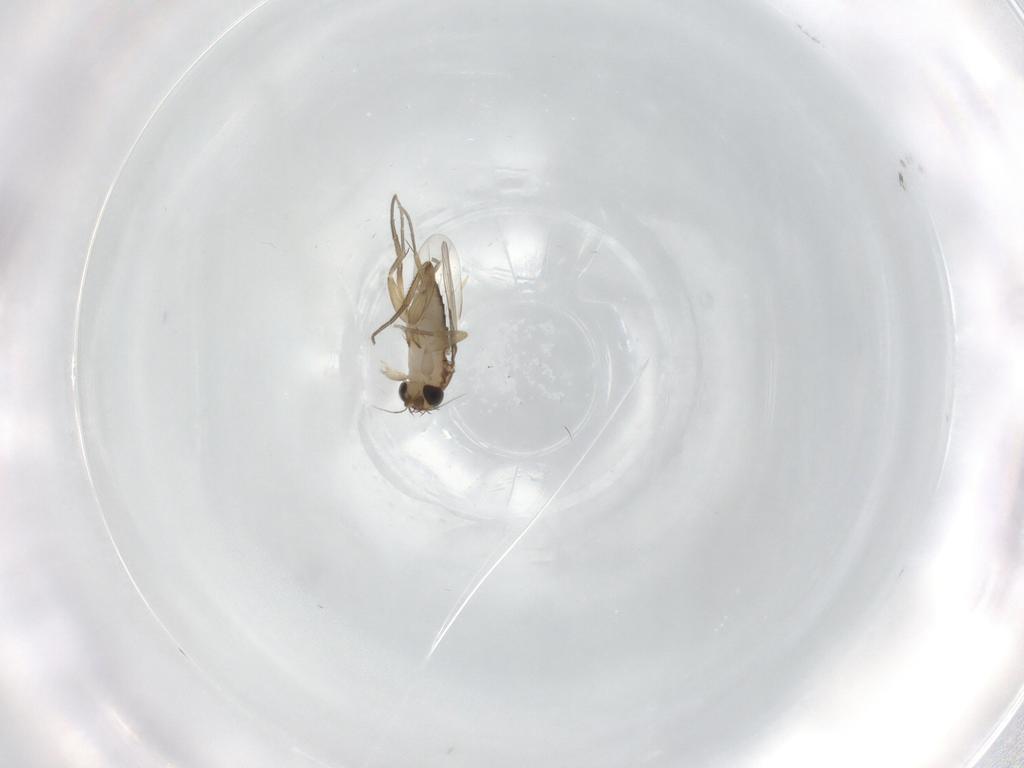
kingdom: Animalia
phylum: Arthropoda
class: Insecta
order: Diptera
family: Phoridae
